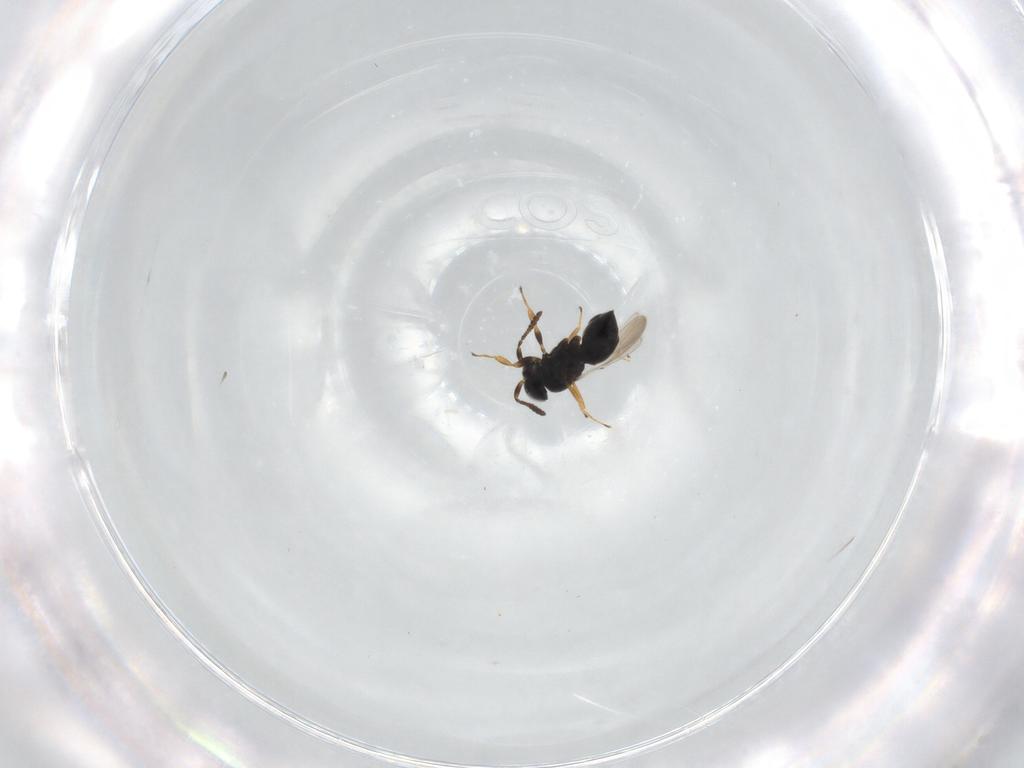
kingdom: Animalia
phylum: Arthropoda
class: Insecta
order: Hymenoptera
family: Scelionidae
